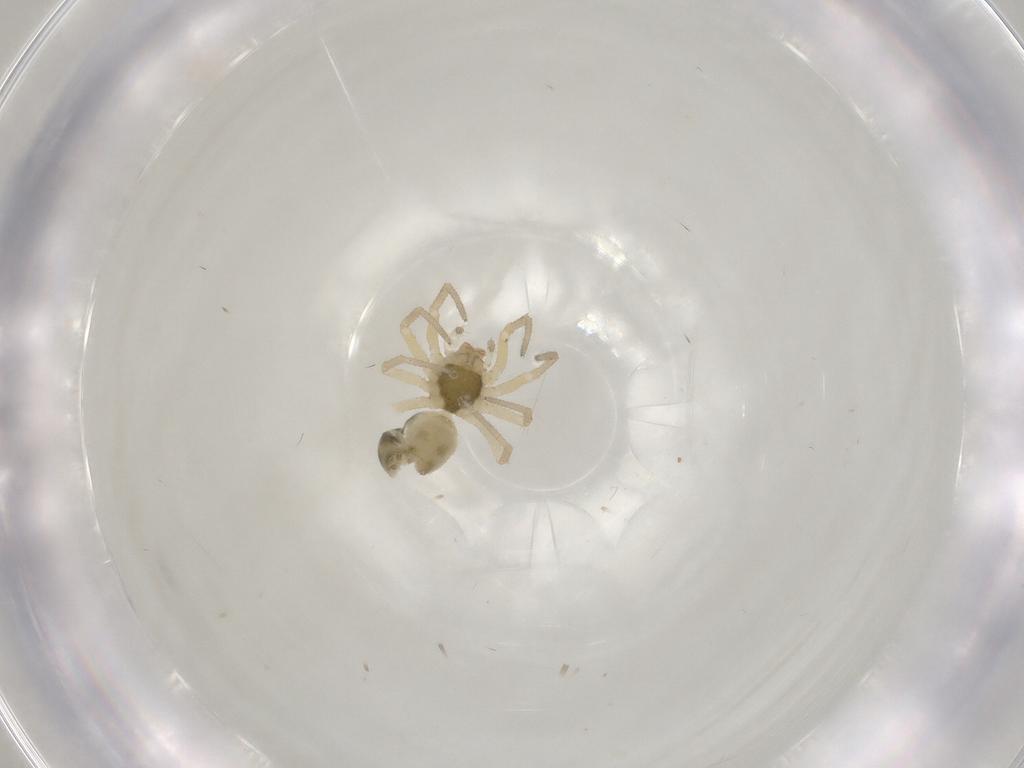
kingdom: Animalia
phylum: Arthropoda
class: Arachnida
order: Araneae
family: Linyphiidae
